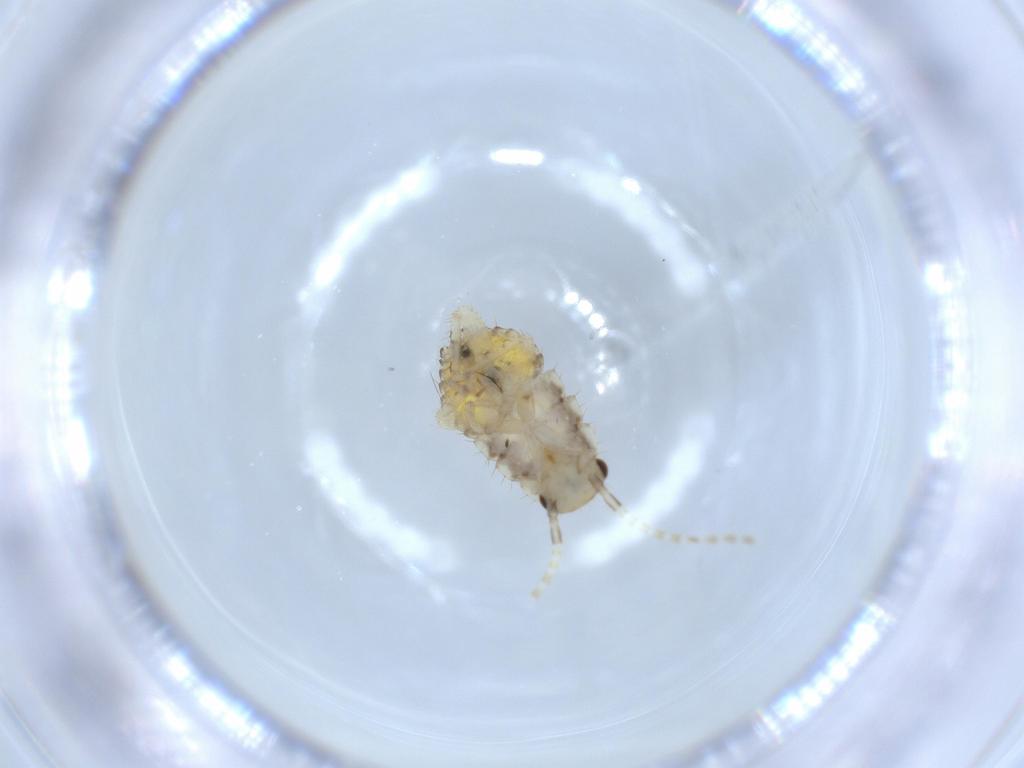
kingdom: Animalia
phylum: Arthropoda
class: Insecta
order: Blattodea
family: Ectobiidae
